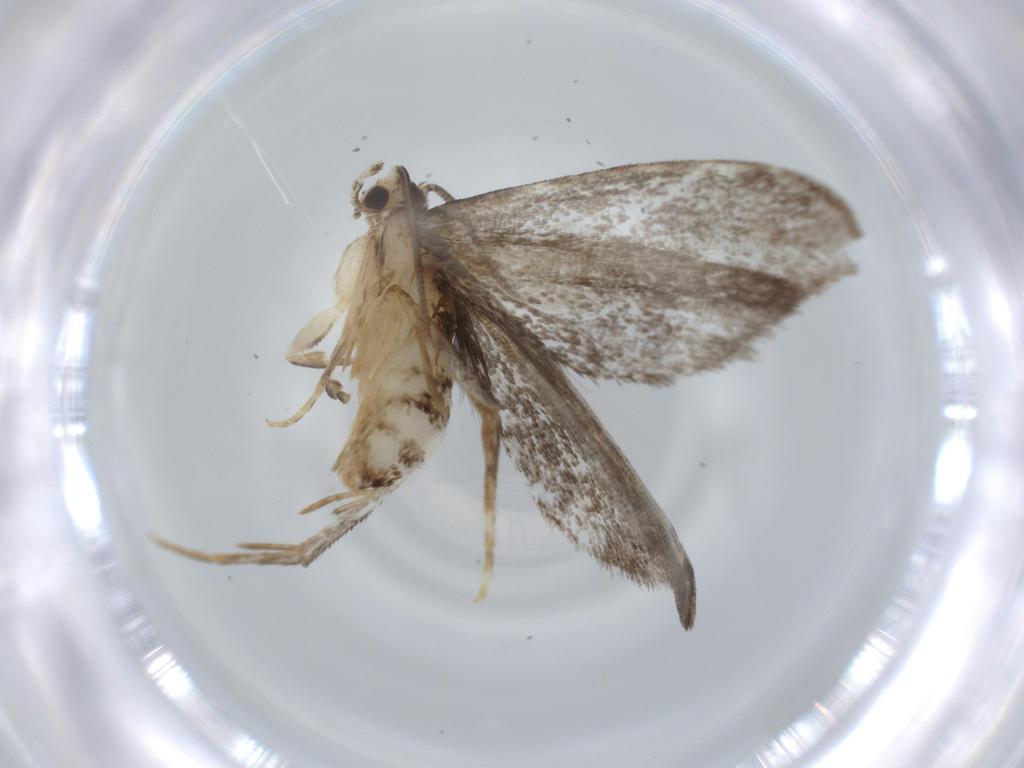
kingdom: Animalia
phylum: Arthropoda
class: Insecta
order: Lepidoptera
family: Dryadaulidae
